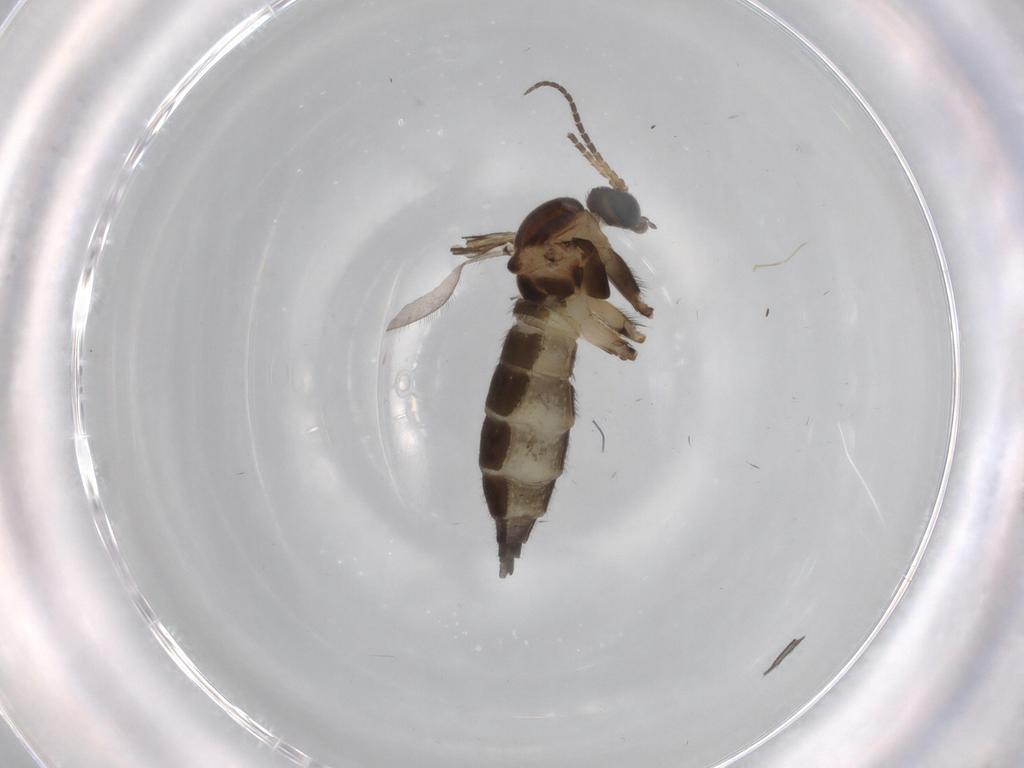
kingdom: Animalia
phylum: Arthropoda
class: Insecta
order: Diptera
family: Sciaridae
